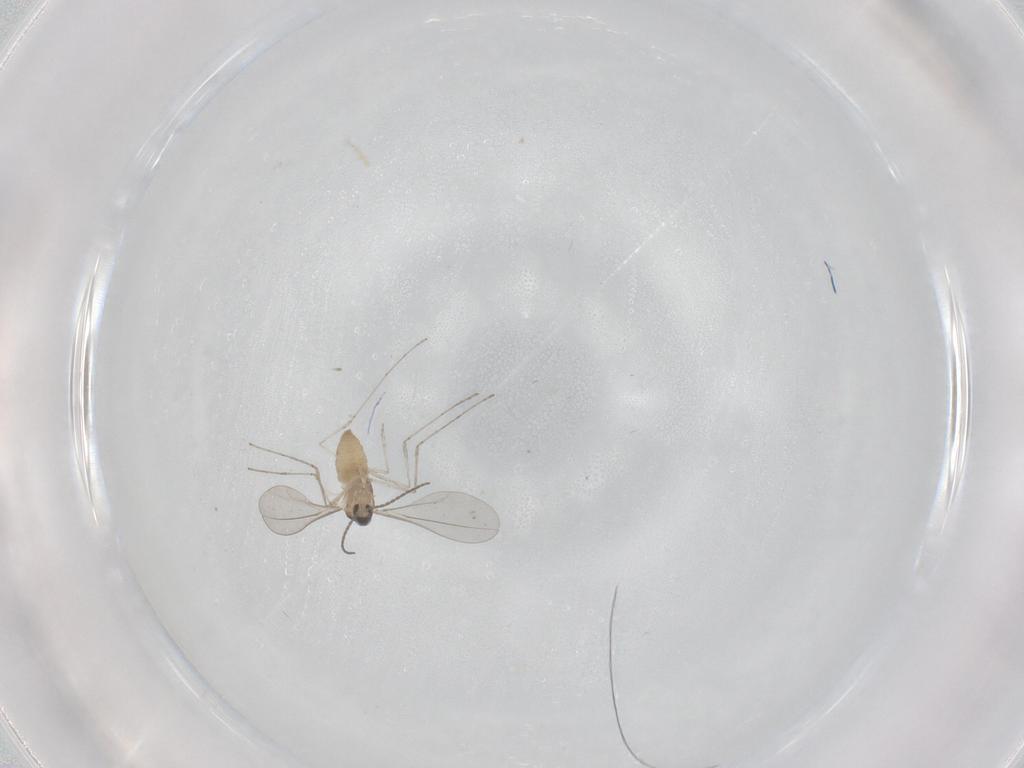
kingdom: Animalia
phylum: Arthropoda
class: Insecta
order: Diptera
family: Cecidomyiidae
